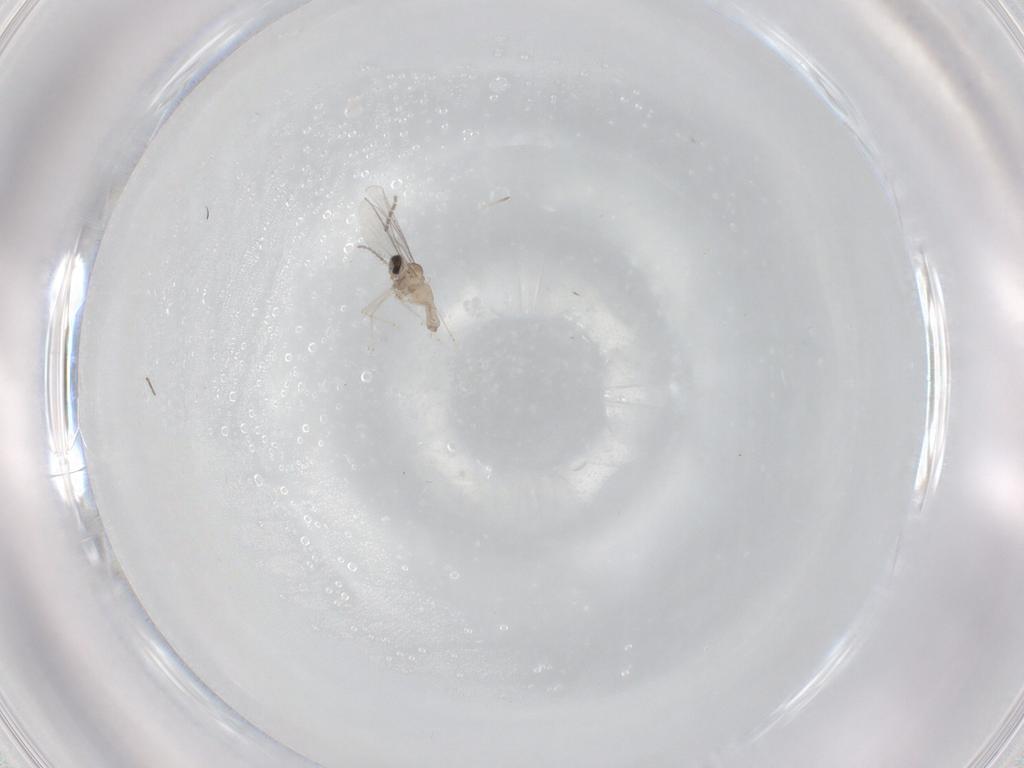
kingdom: Animalia
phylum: Arthropoda
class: Insecta
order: Diptera
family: Cecidomyiidae
